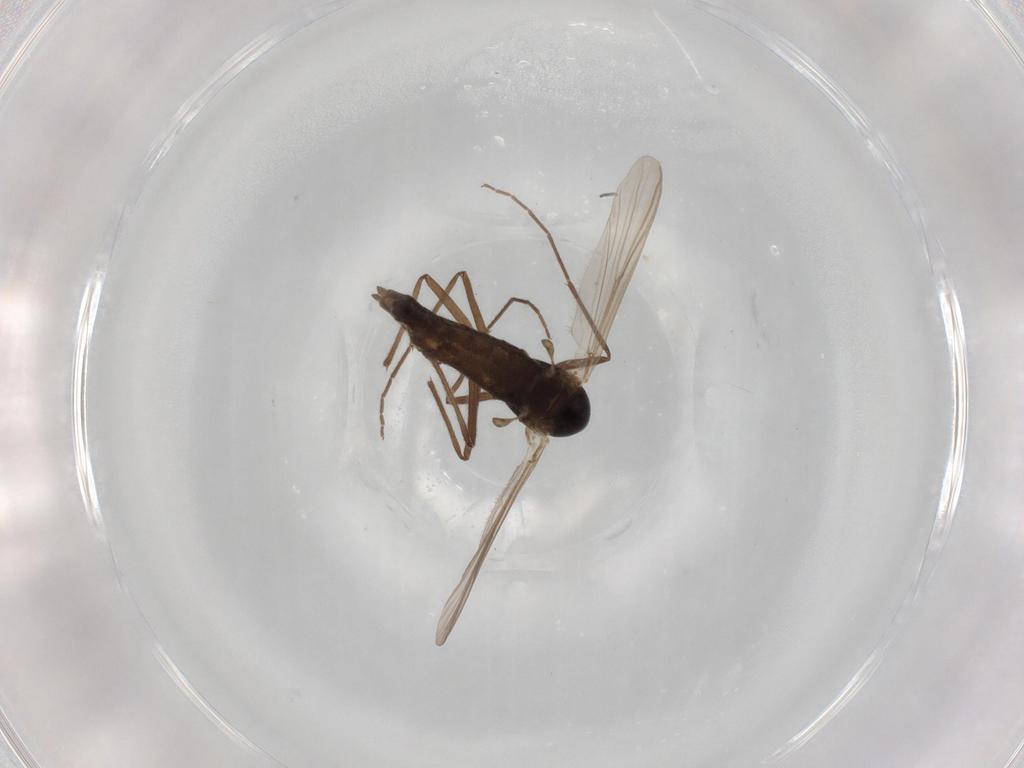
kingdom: Animalia
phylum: Arthropoda
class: Insecta
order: Diptera
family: Chironomidae
